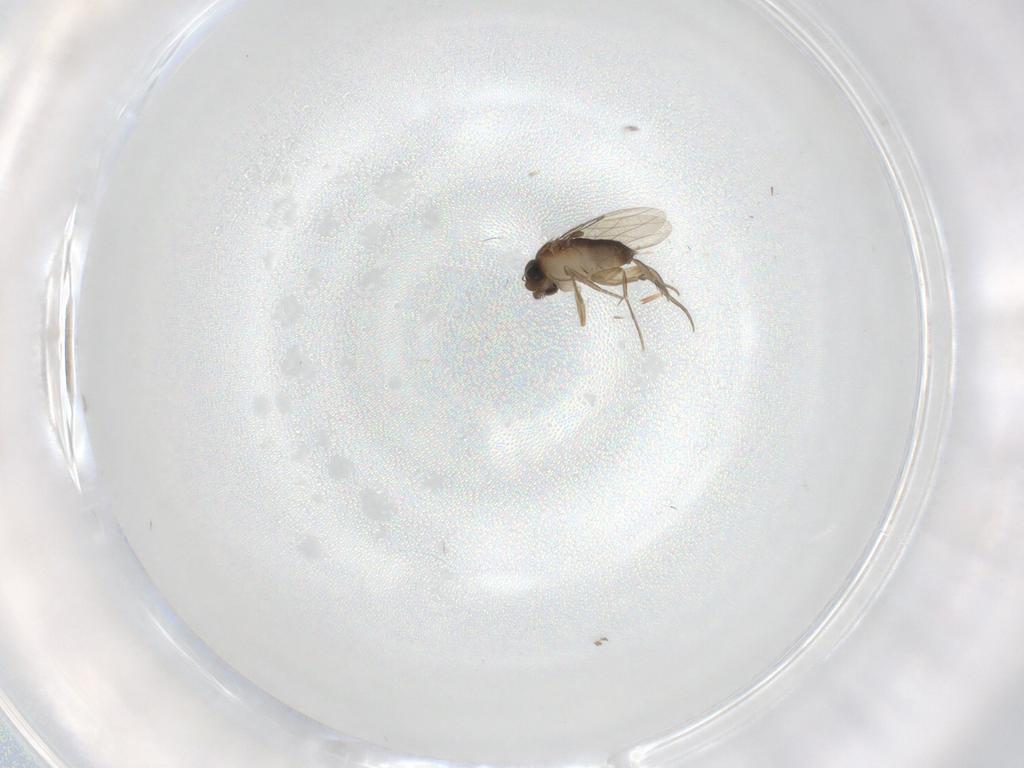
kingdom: Animalia
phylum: Arthropoda
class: Insecta
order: Diptera
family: Phoridae
